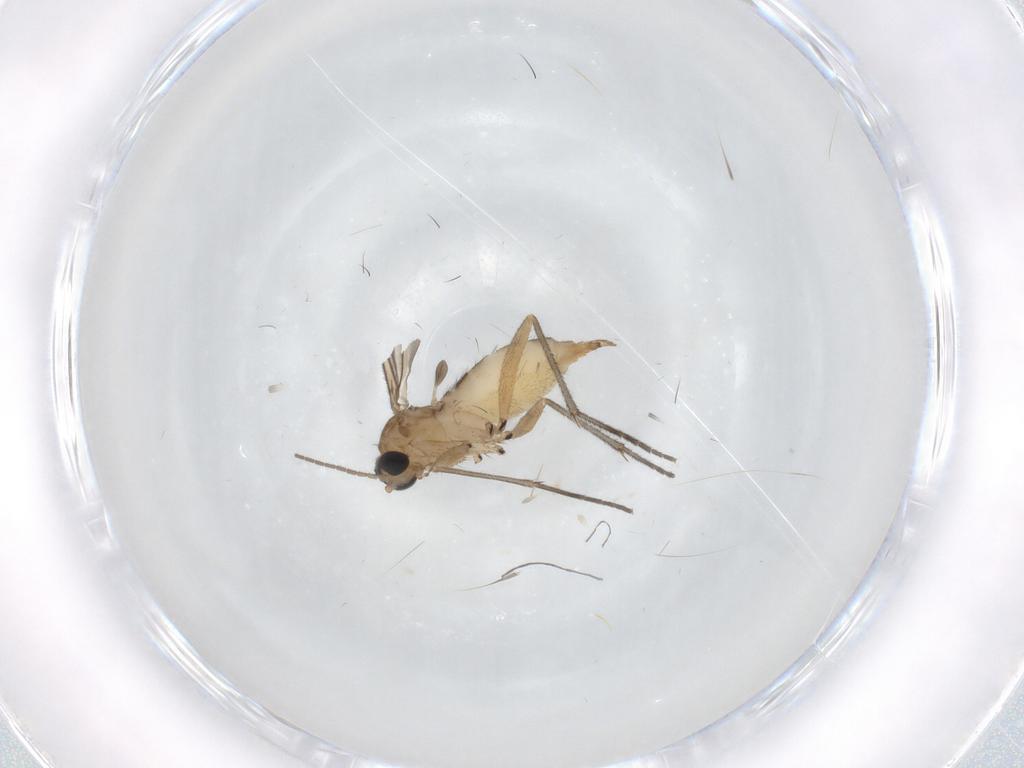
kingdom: Animalia
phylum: Arthropoda
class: Insecta
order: Diptera
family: Sciaridae
